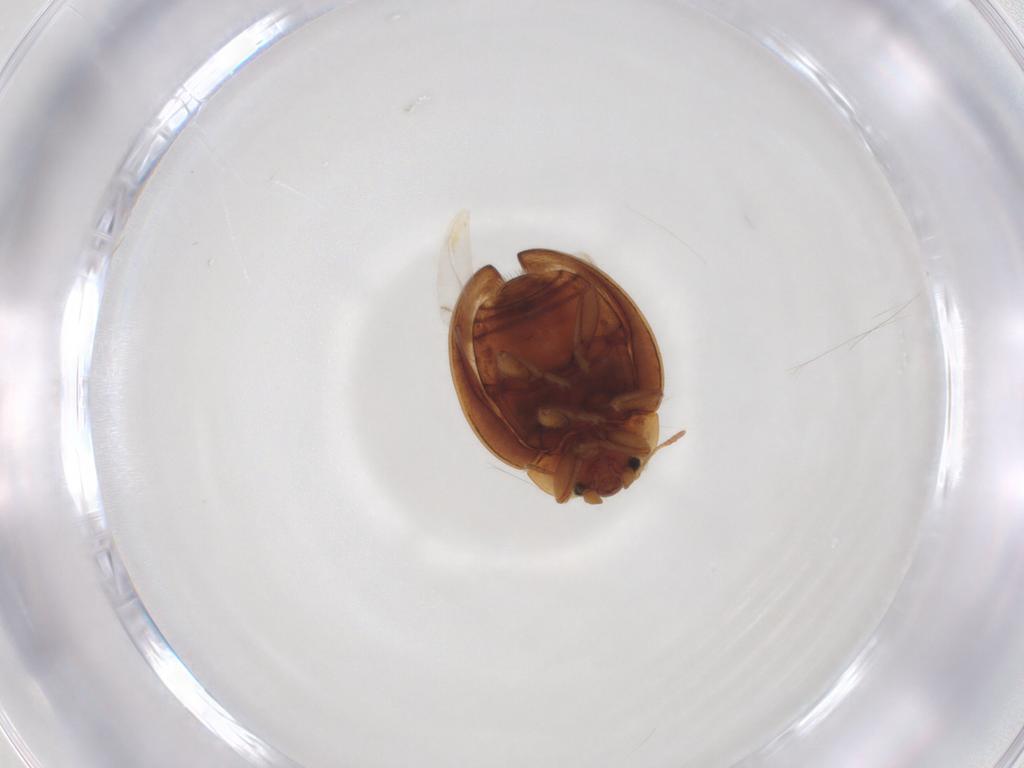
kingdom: Animalia
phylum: Arthropoda
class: Insecta
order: Coleoptera
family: Coccinellidae
